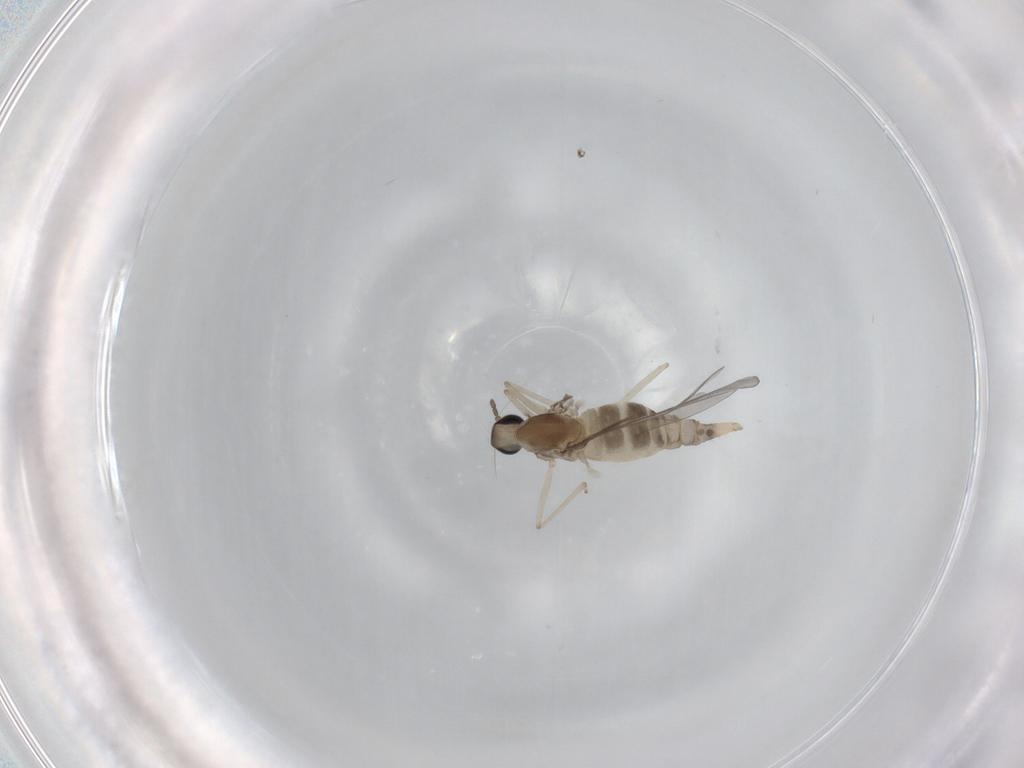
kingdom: Animalia
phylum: Arthropoda
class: Insecta
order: Diptera
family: Cecidomyiidae
